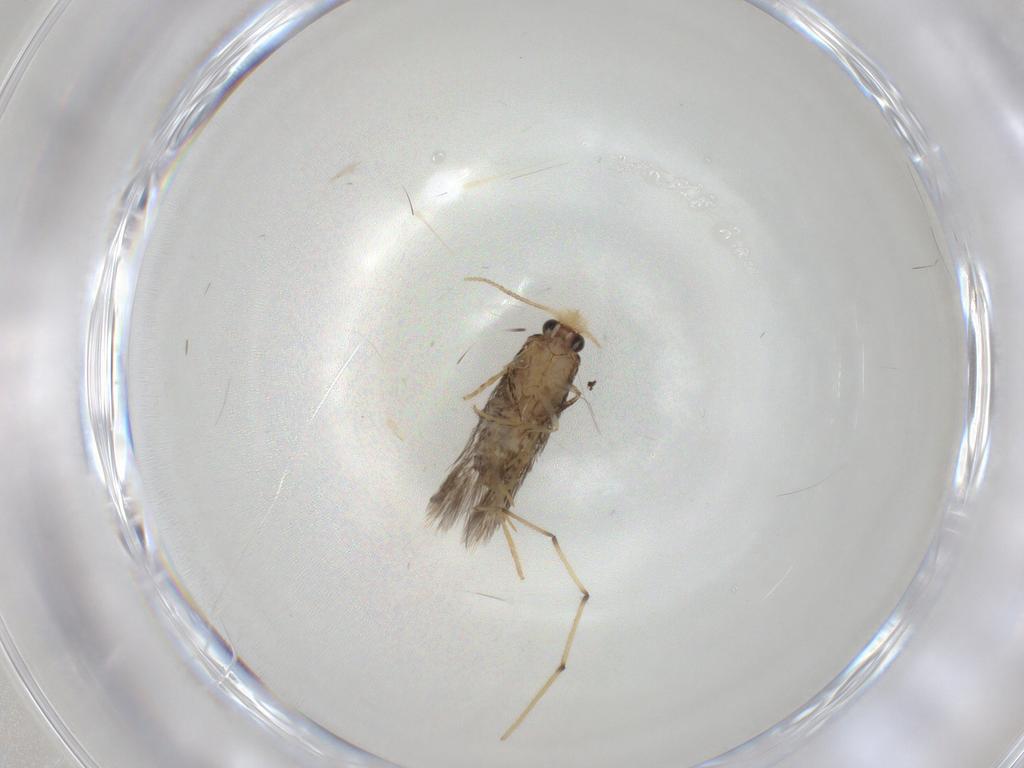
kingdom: Animalia
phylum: Arthropoda
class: Insecta
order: Lepidoptera
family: Nepticulidae
